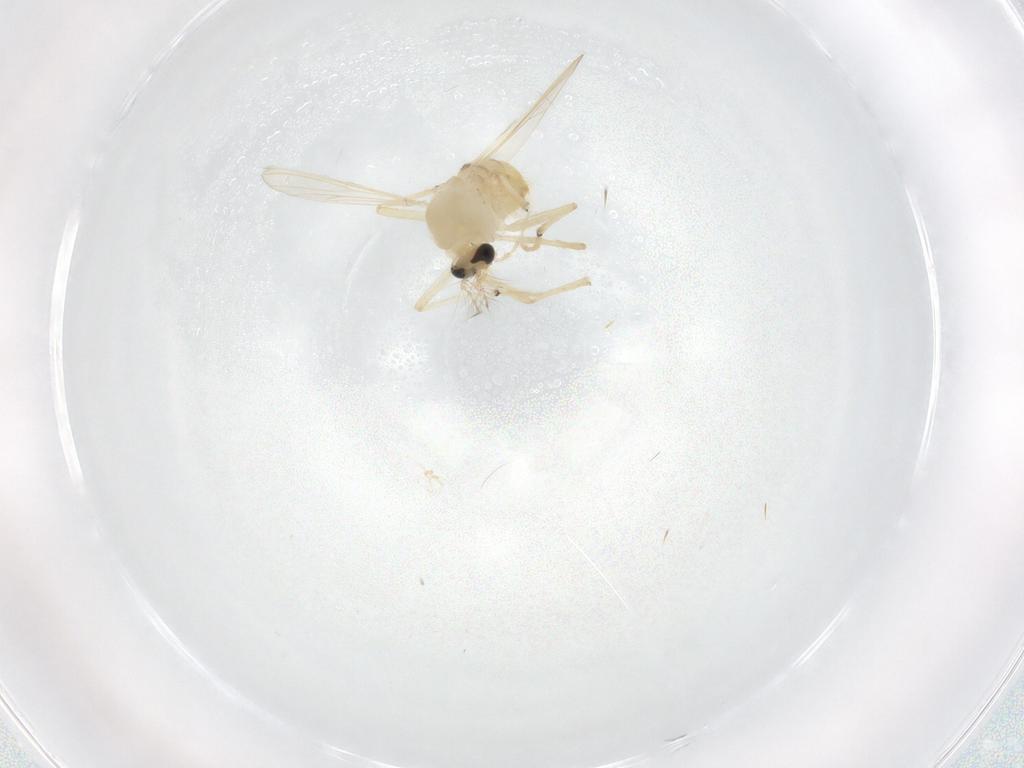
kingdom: Animalia
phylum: Arthropoda
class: Insecta
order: Diptera
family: Chironomidae
